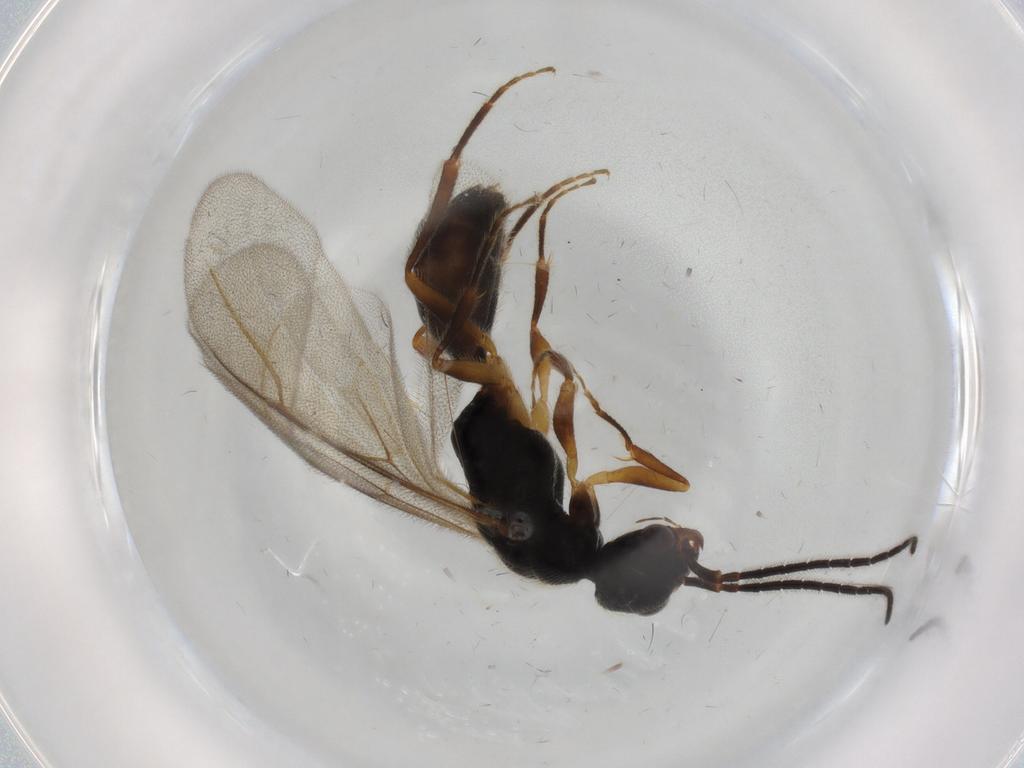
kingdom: Animalia
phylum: Arthropoda
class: Insecta
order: Hymenoptera
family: Bethylidae
